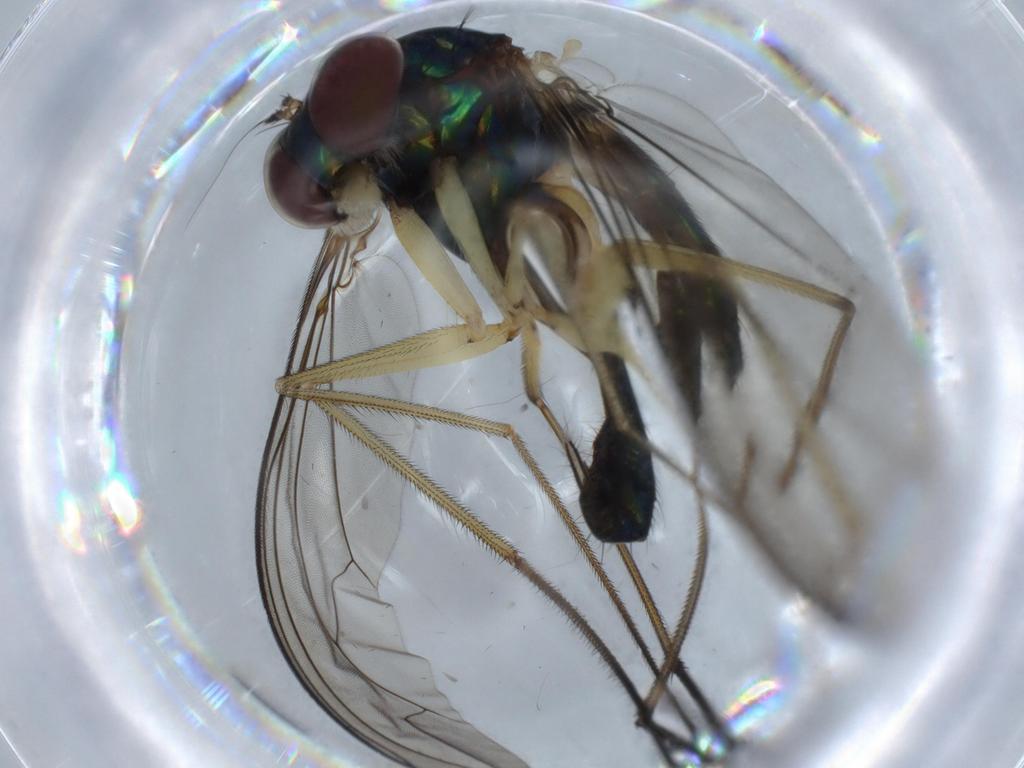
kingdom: Animalia
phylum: Arthropoda
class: Insecta
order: Diptera
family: Dolichopodidae
